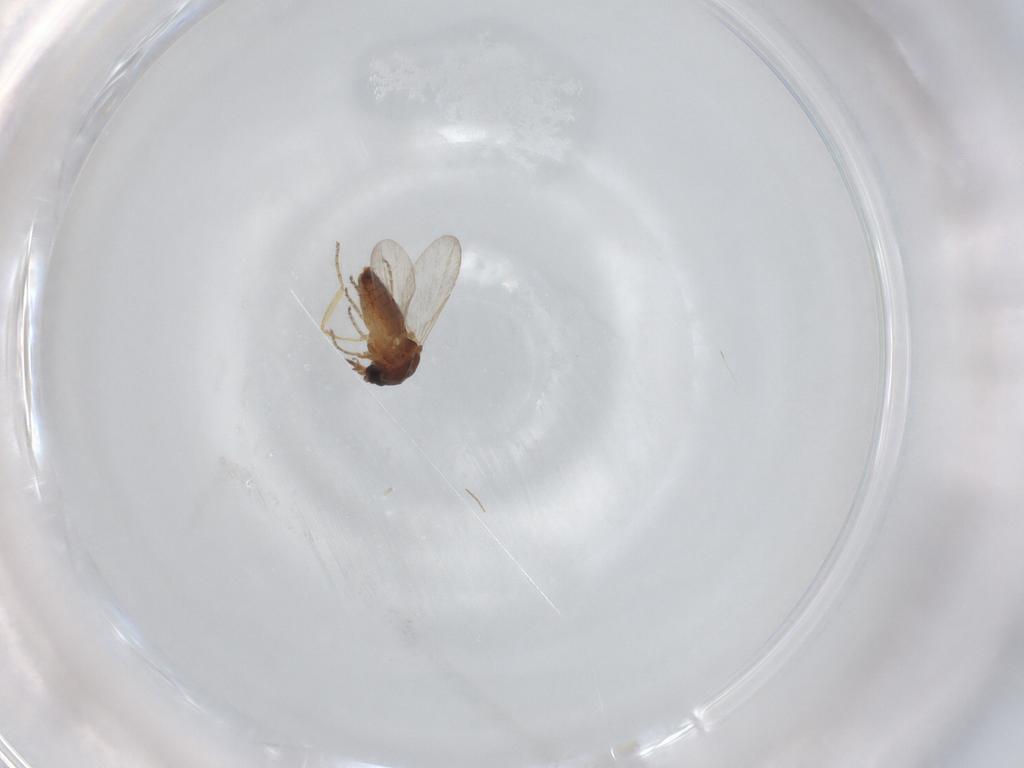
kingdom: Animalia
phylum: Arthropoda
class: Insecta
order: Diptera
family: Ceratopogonidae
